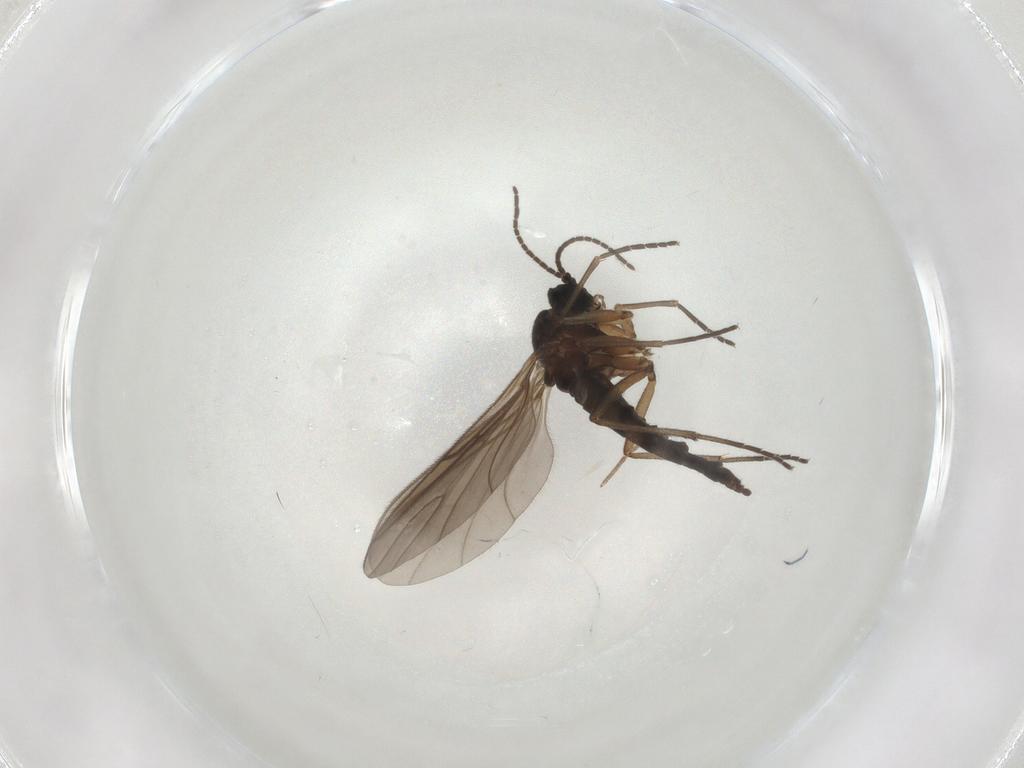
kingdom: Animalia
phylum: Arthropoda
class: Insecta
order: Diptera
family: Sciaridae
